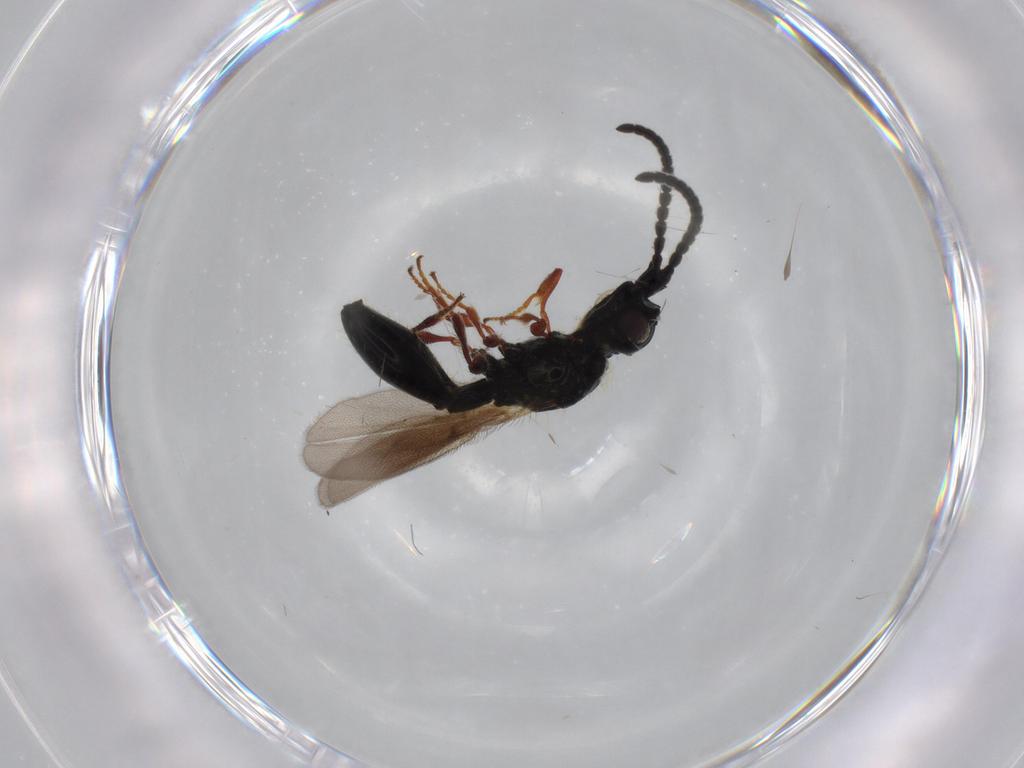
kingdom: Animalia
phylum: Arthropoda
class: Insecta
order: Hymenoptera
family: Diapriidae
